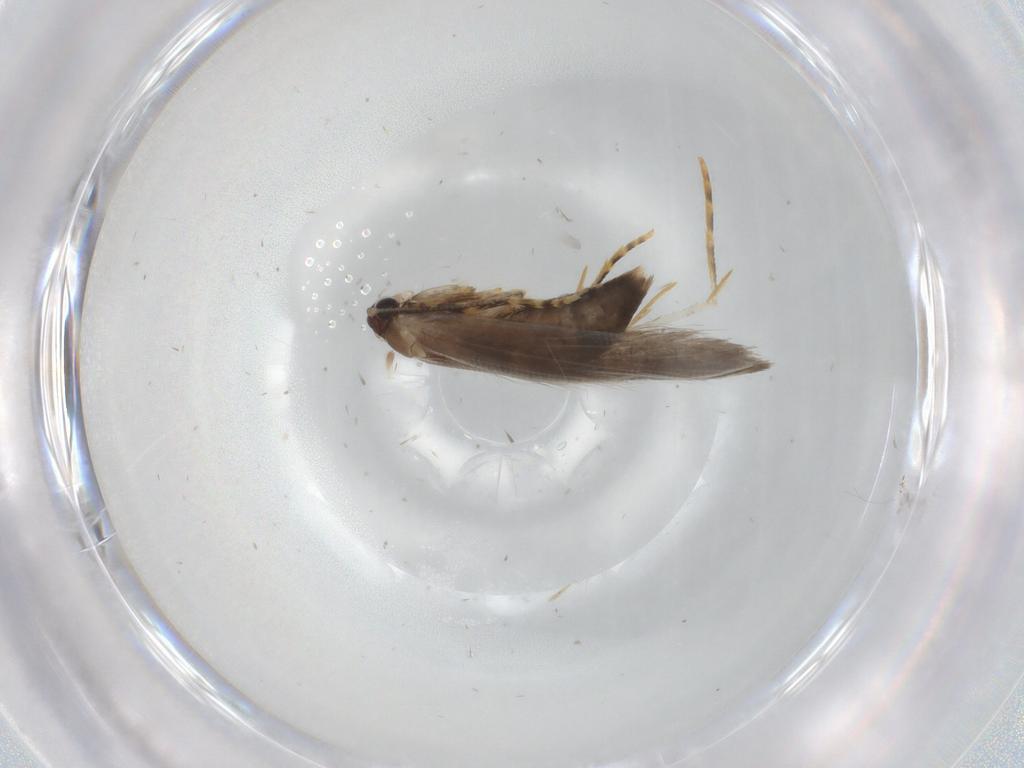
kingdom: Animalia
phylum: Arthropoda
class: Insecta
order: Lepidoptera
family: Tineidae
